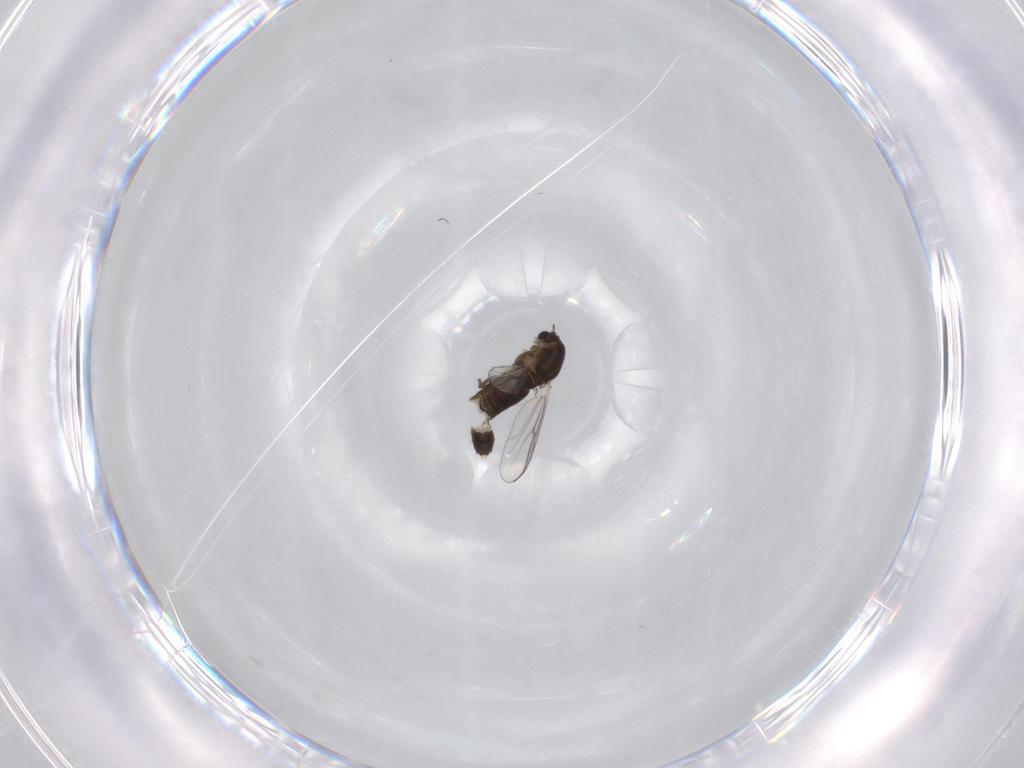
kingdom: Animalia
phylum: Arthropoda
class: Insecta
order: Diptera
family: Chironomidae
